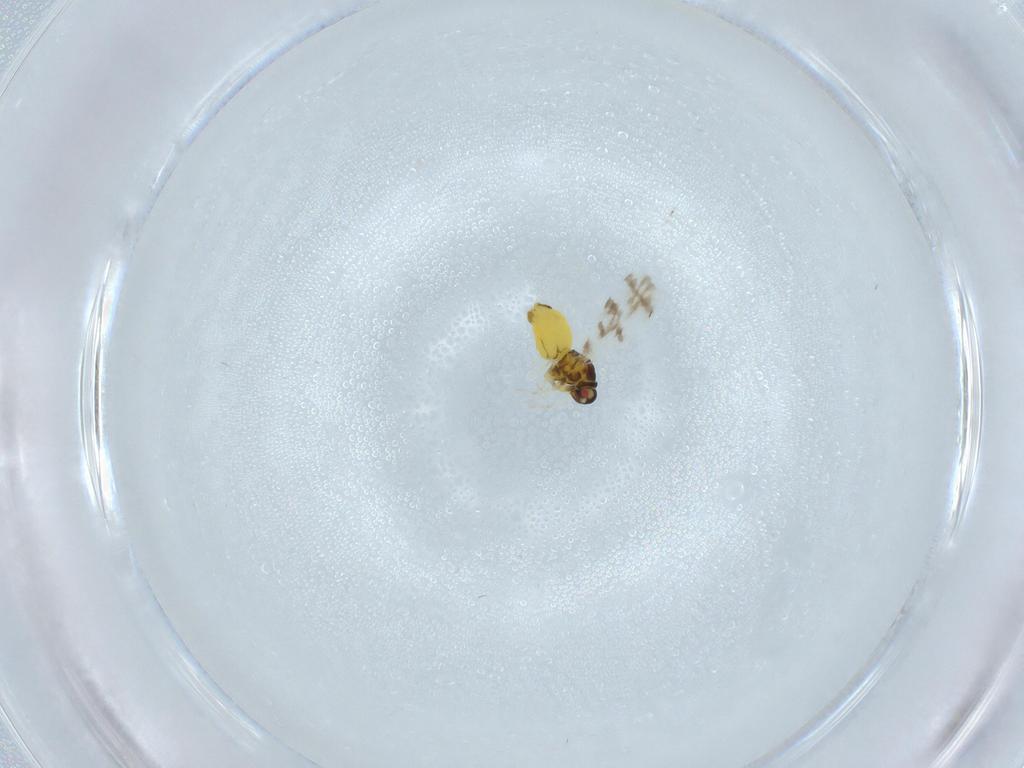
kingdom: Animalia
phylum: Arthropoda
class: Insecta
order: Hemiptera
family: Aleyrodidae
